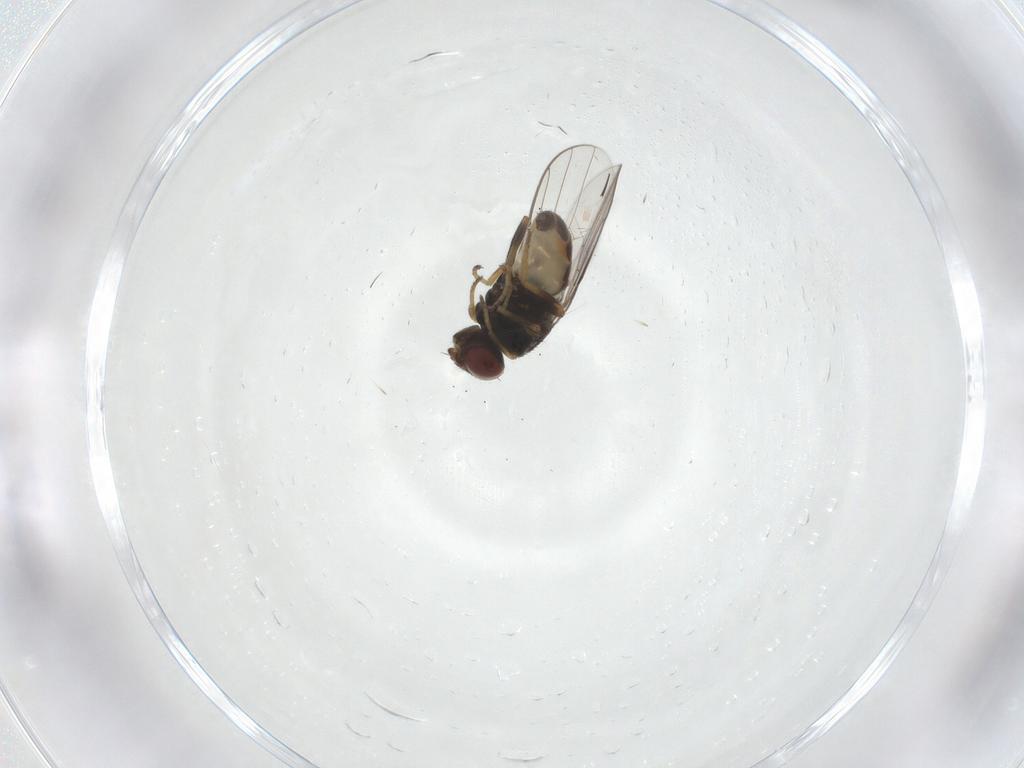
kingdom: Animalia
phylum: Arthropoda
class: Insecta
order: Diptera
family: Chloropidae
